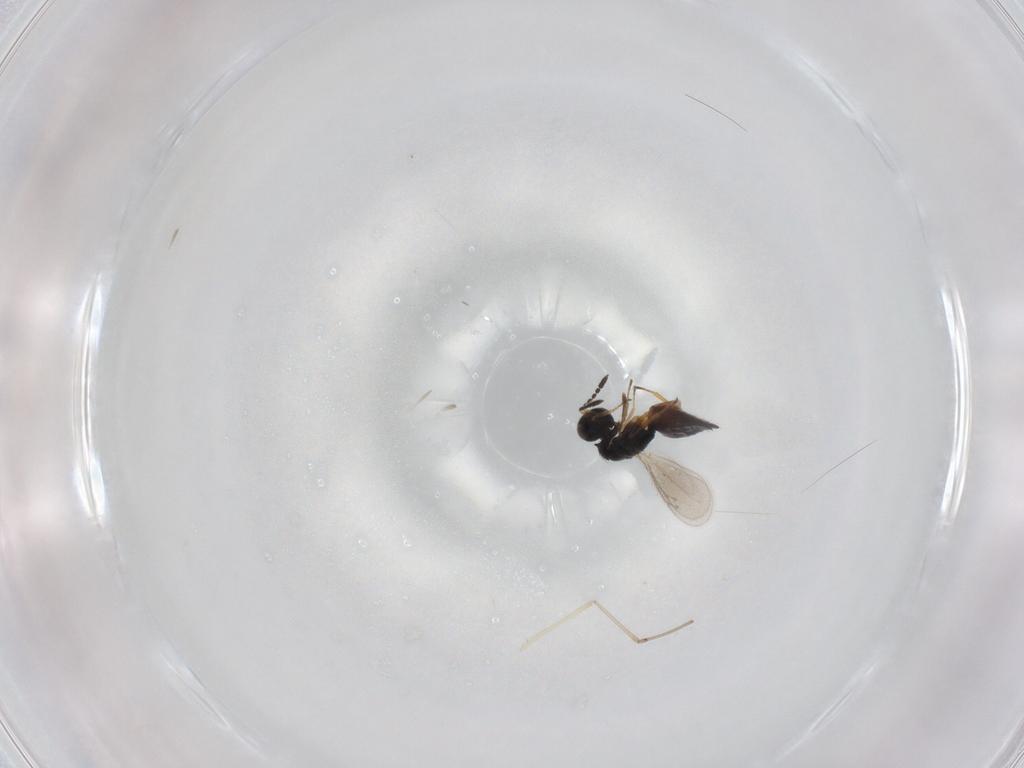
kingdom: Animalia
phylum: Arthropoda
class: Insecta
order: Hymenoptera
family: Eulophidae
